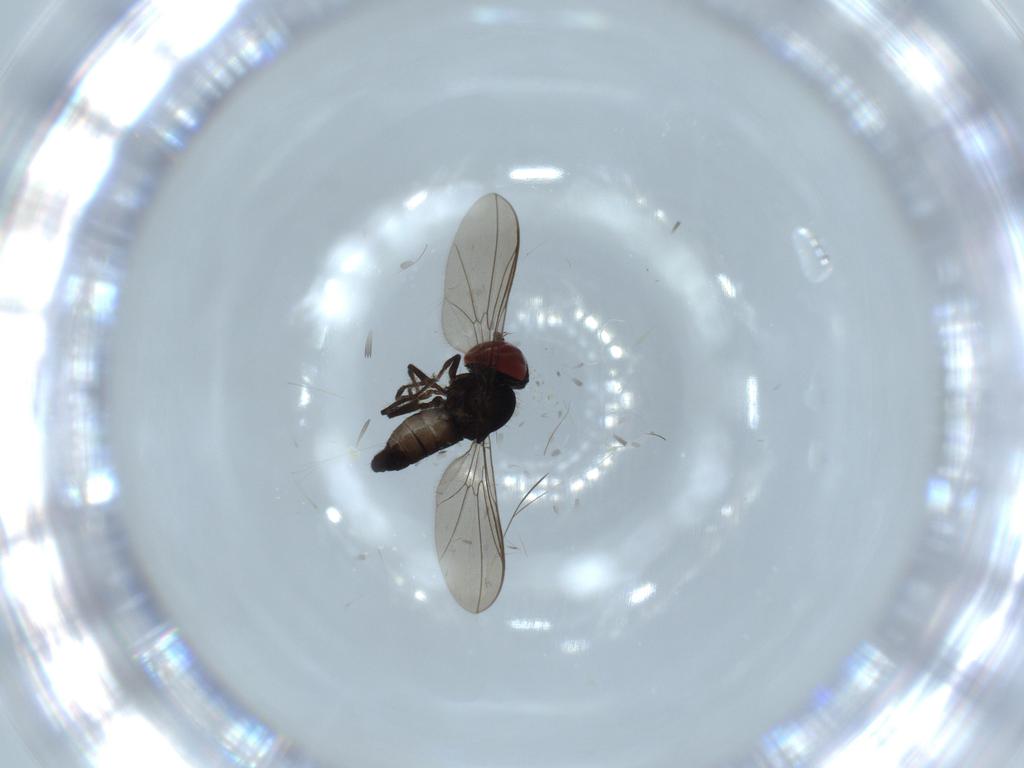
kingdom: Animalia
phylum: Arthropoda
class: Insecta
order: Diptera
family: Pipunculidae
